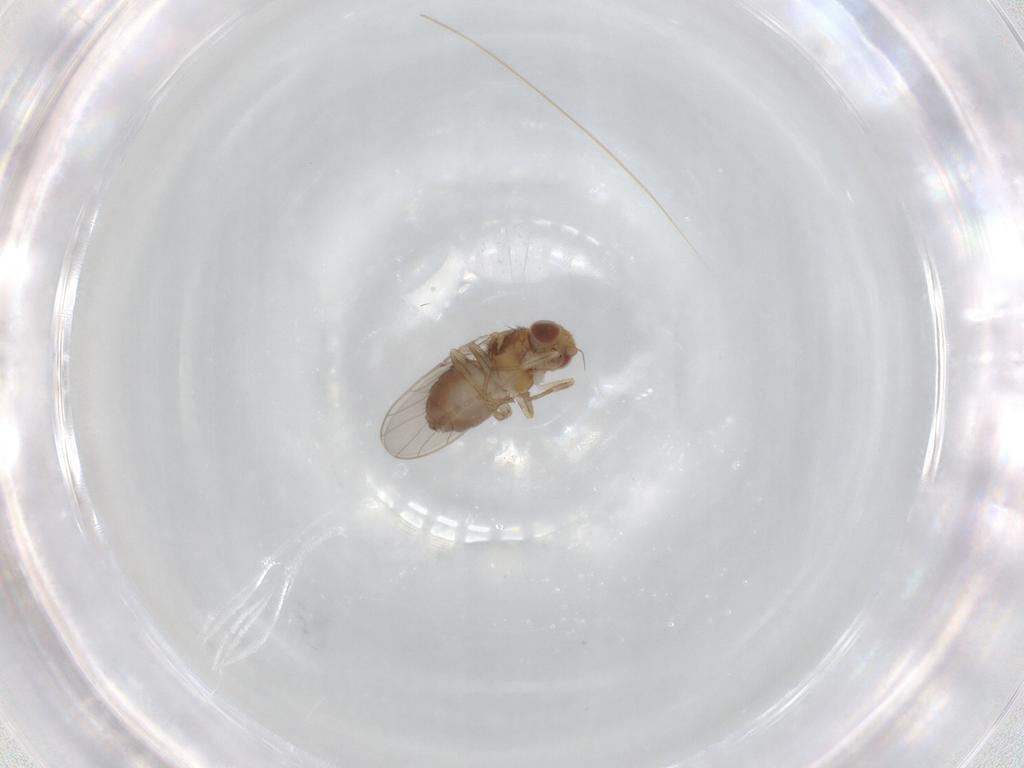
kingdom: Animalia
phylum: Arthropoda
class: Insecta
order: Diptera
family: Chloropidae
